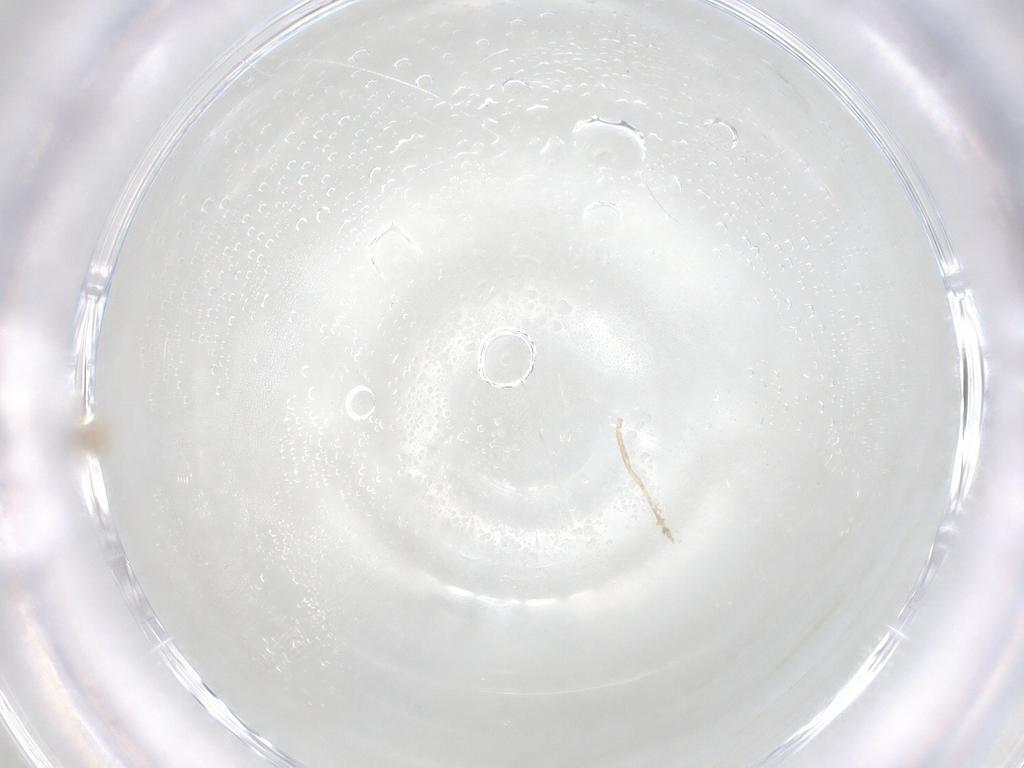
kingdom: Animalia
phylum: Arthropoda
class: Insecta
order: Thysanoptera
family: Thripidae
